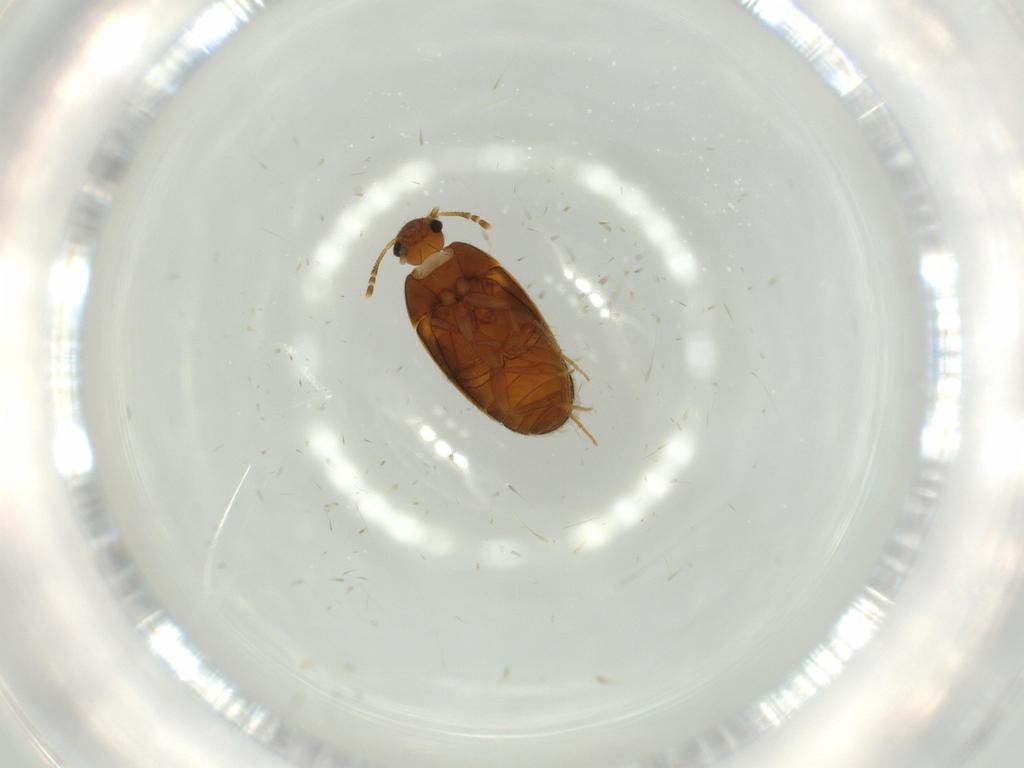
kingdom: Animalia
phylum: Arthropoda
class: Insecta
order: Coleoptera
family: Mycetophagidae
